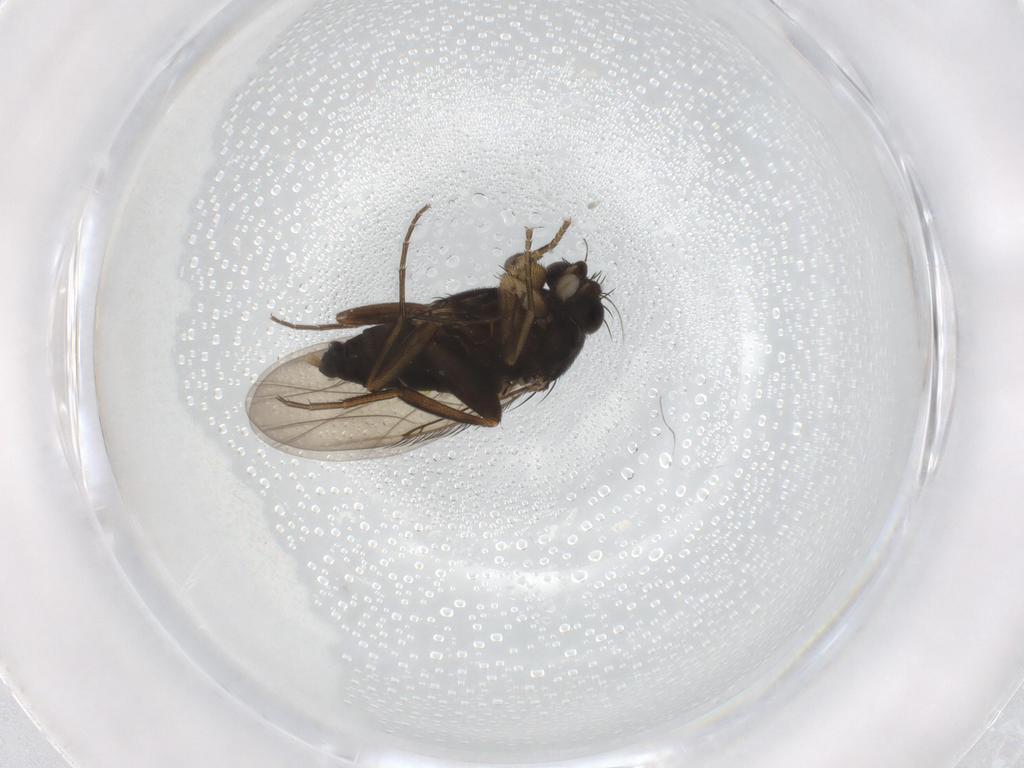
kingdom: Animalia
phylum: Arthropoda
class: Insecta
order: Diptera
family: Phoridae
